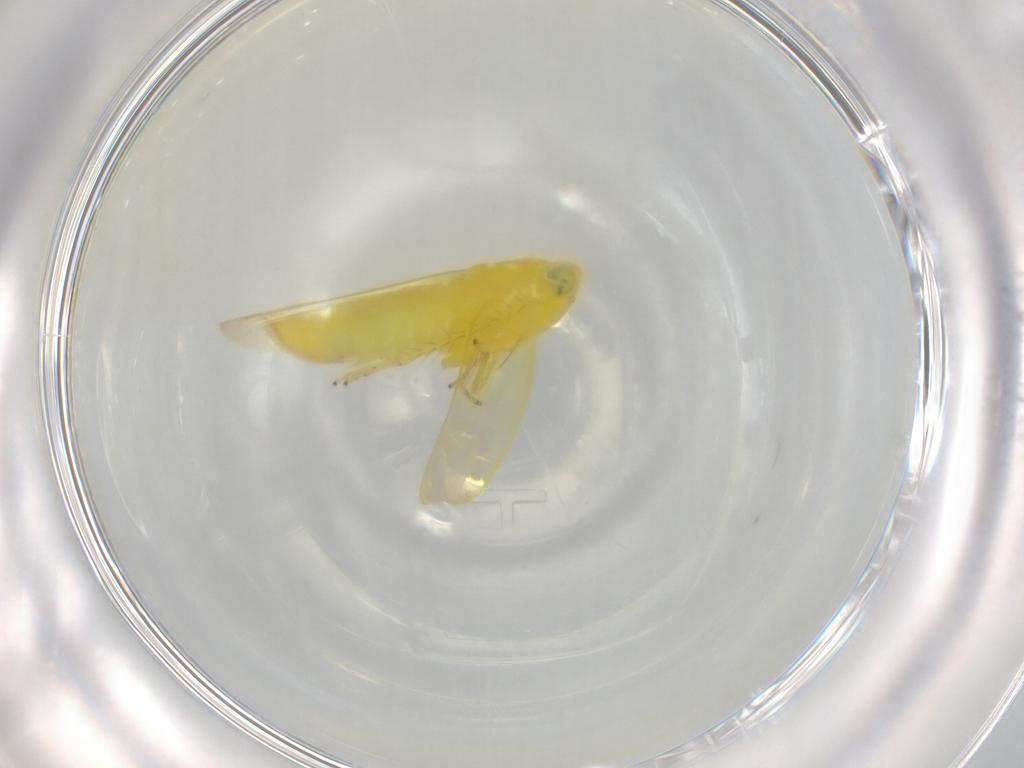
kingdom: Animalia
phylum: Arthropoda
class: Insecta
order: Hemiptera
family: Cicadellidae
